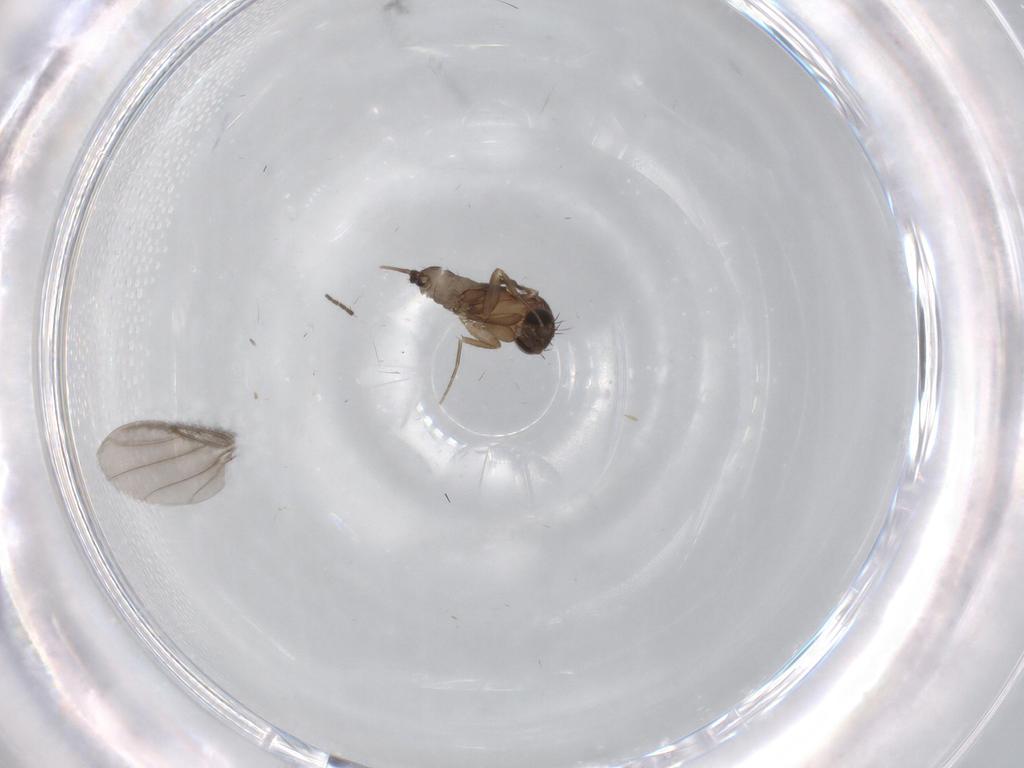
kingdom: Animalia
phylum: Arthropoda
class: Insecta
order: Diptera
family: Phoridae
